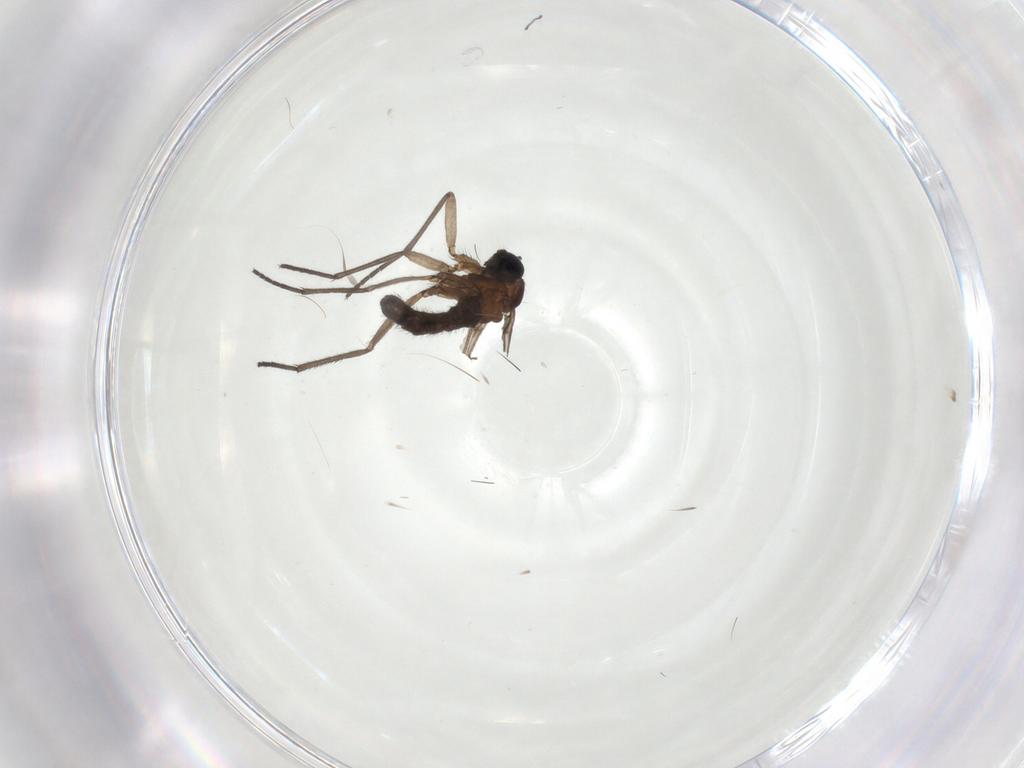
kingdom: Animalia
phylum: Arthropoda
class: Insecta
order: Diptera
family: Sciaridae
